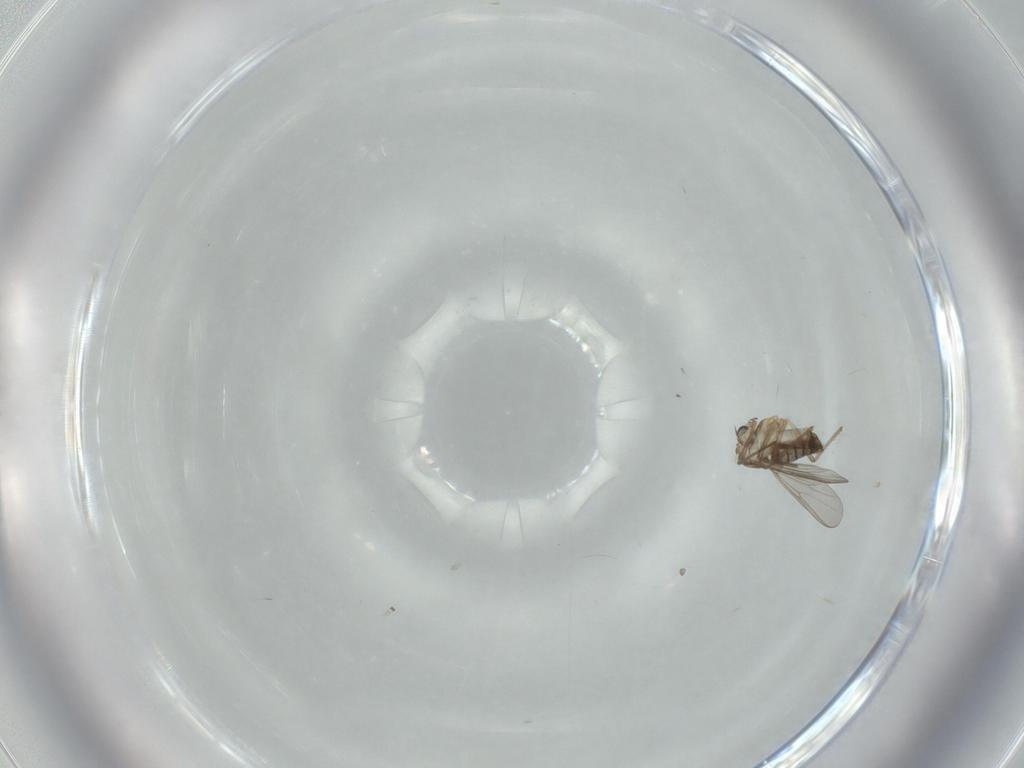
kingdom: Animalia
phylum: Arthropoda
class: Insecta
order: Diptera
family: Chironomidae
